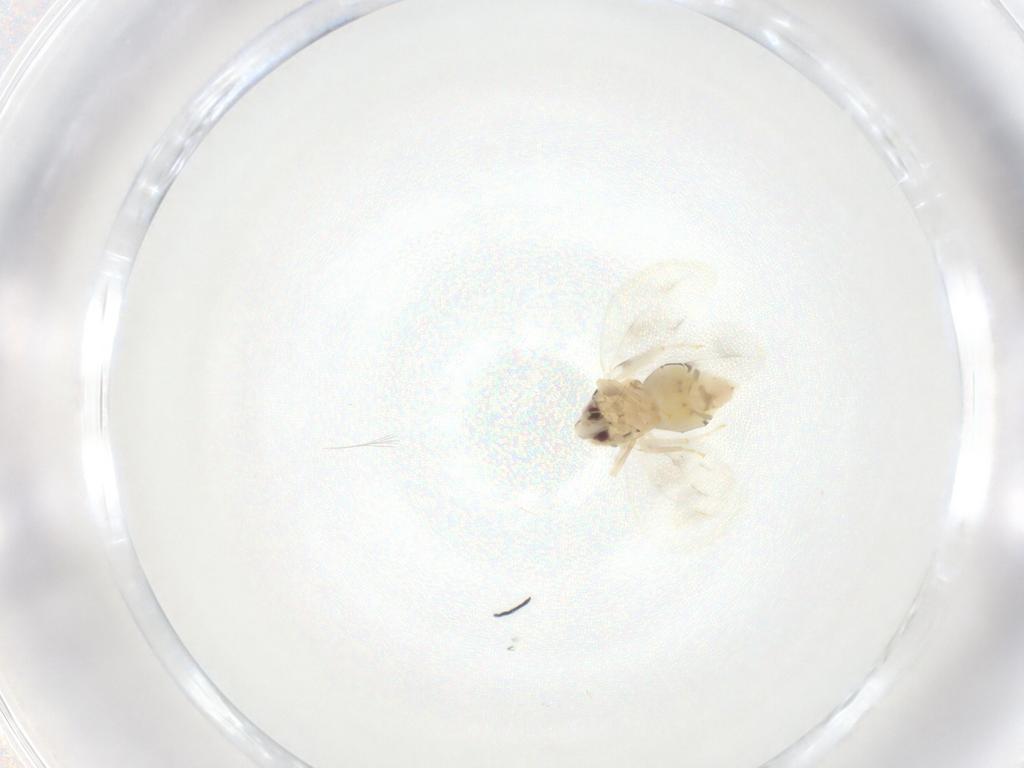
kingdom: Animalia
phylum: Arthropoda
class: Insecta
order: Hemiptera
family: Aleyrodidae
